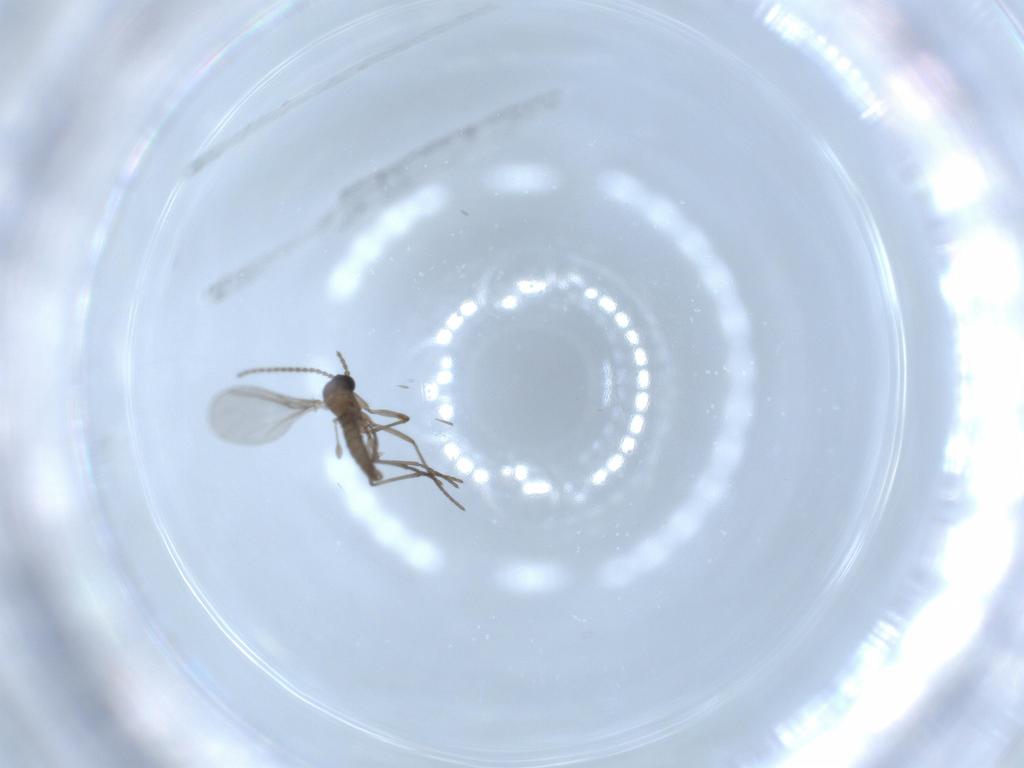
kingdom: Animalia
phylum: Arthropoda
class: Insecta
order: Diptera
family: Sciaridae
